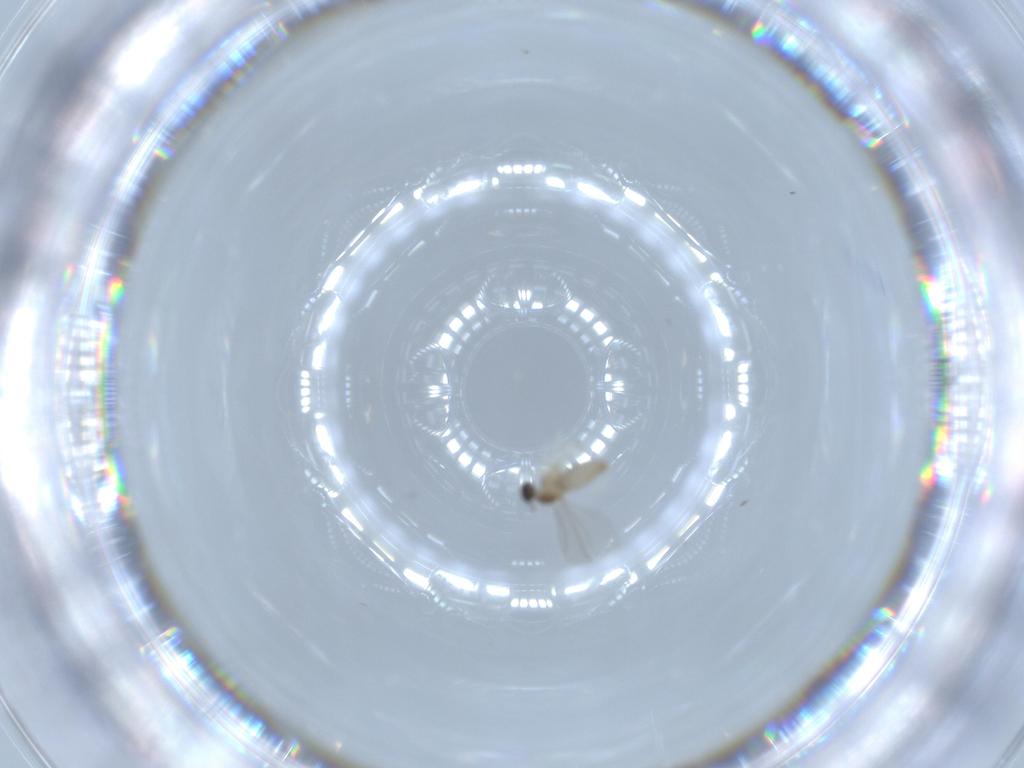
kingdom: Animalia
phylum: Arthropoda
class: Insecta
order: Diptera
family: Cecidomyiidae
